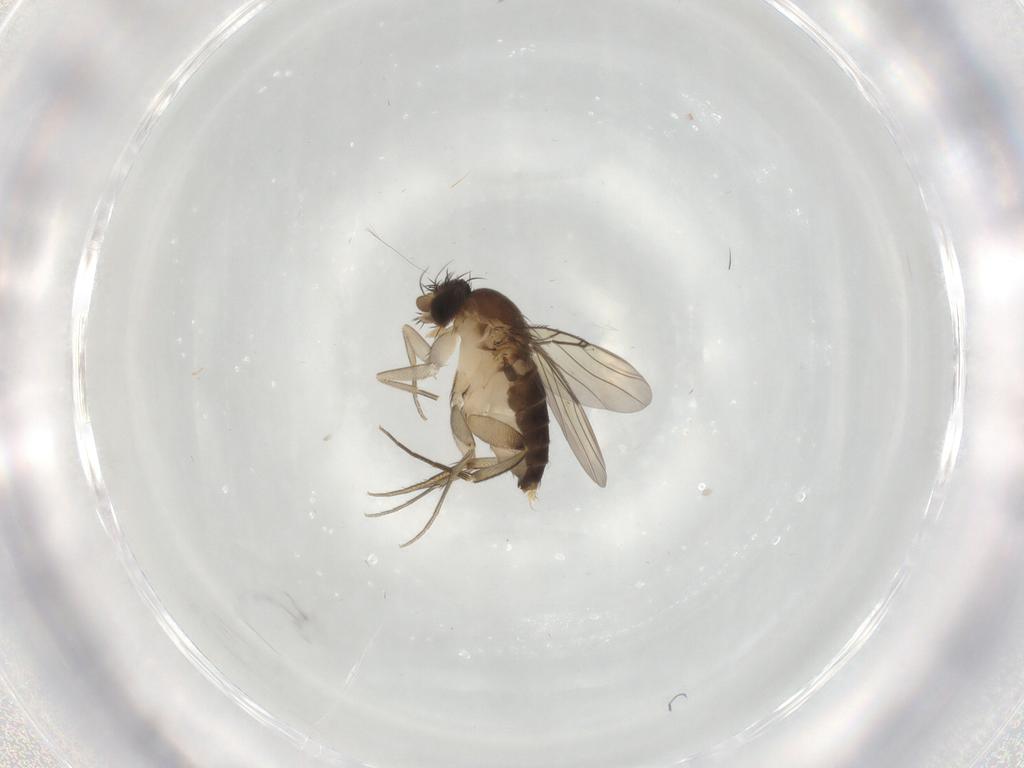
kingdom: Animalia
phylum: Arthropoda
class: Insecta
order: Diptera
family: Phoridae
